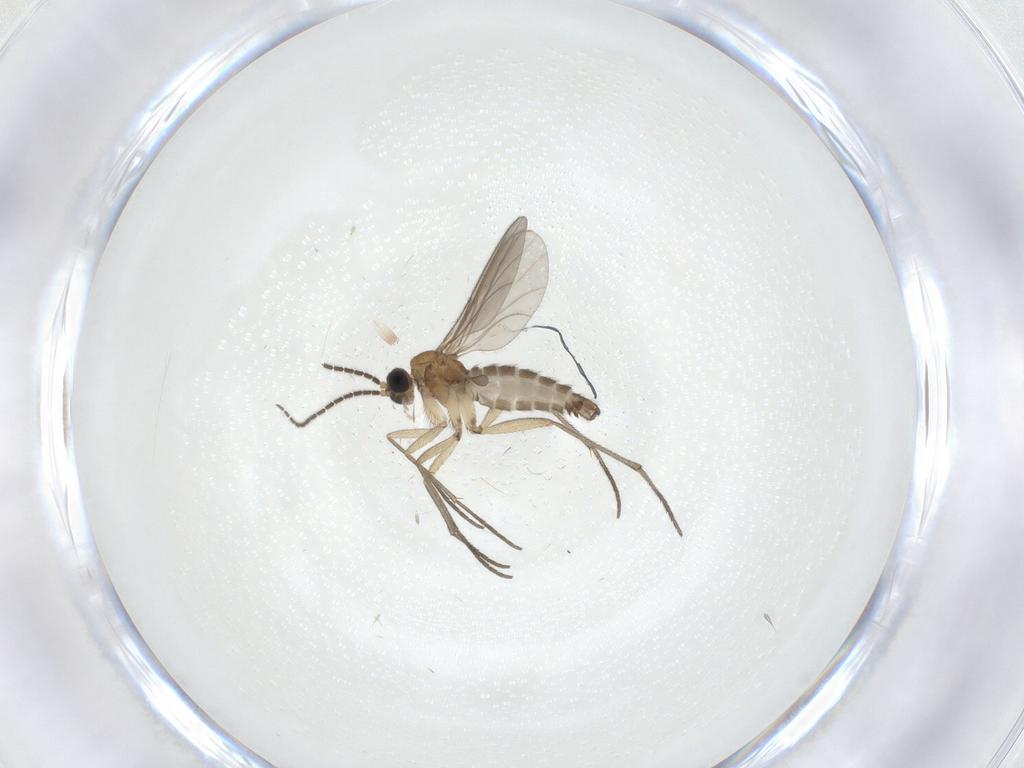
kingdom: Animalia
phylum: Arthropoda
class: Insecta
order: Diptera
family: Sciaridae
